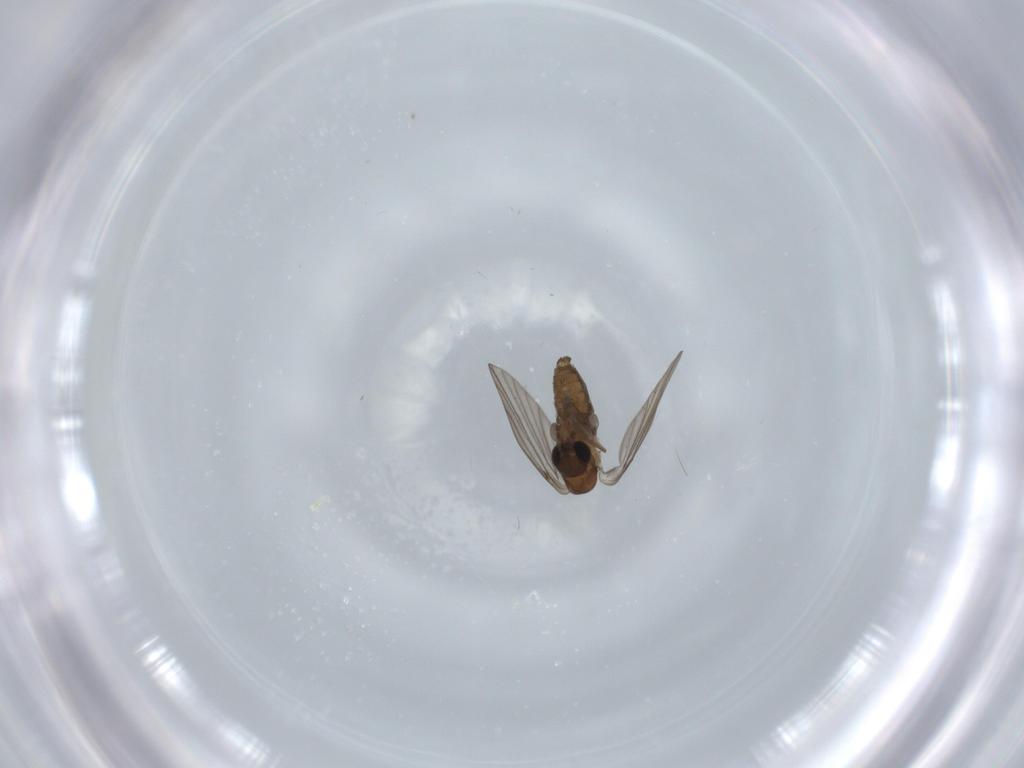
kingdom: Animalia
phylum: Arthropoda
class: Insecta
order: Diptera
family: Psychodidae
